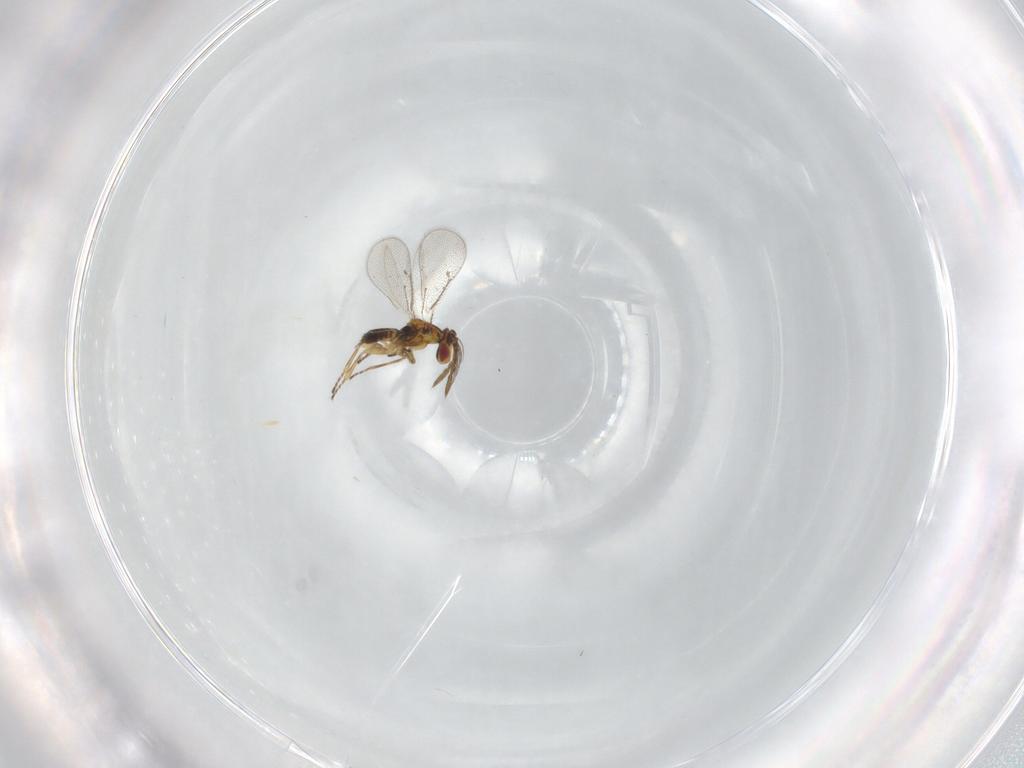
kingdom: Animalia
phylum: Arthropoda
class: Insecta
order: Hymenoptera
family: Eulophidae
